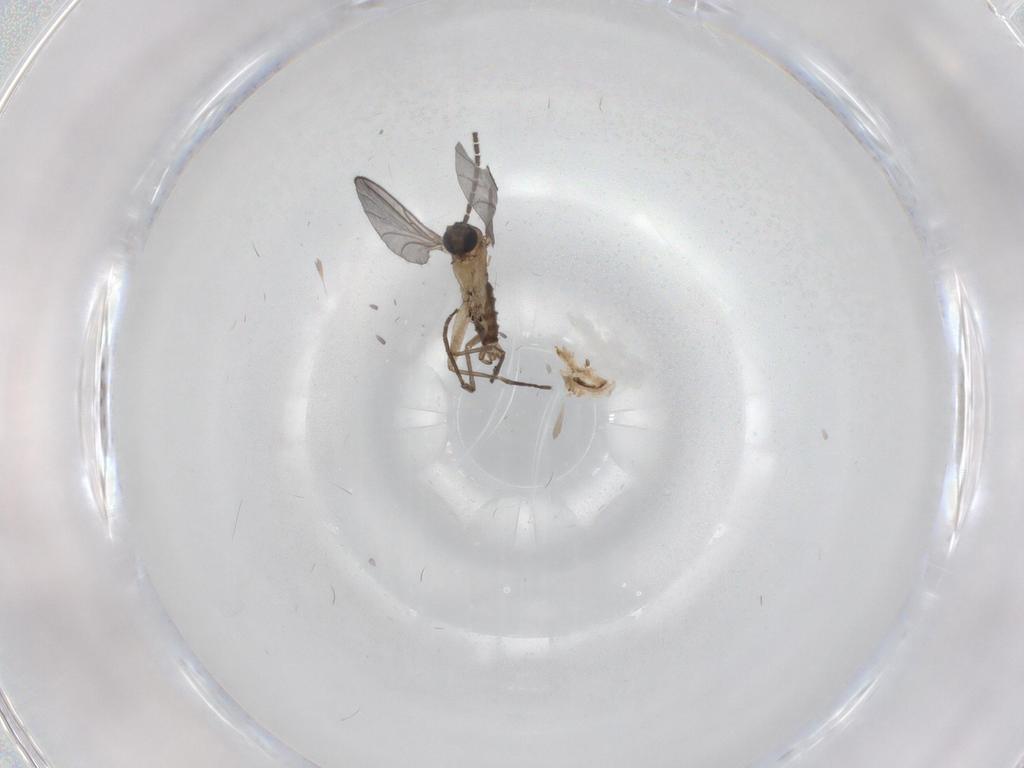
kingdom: Animalia
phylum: Arthropoda
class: Insecta
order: Diptera
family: Sciaridae
